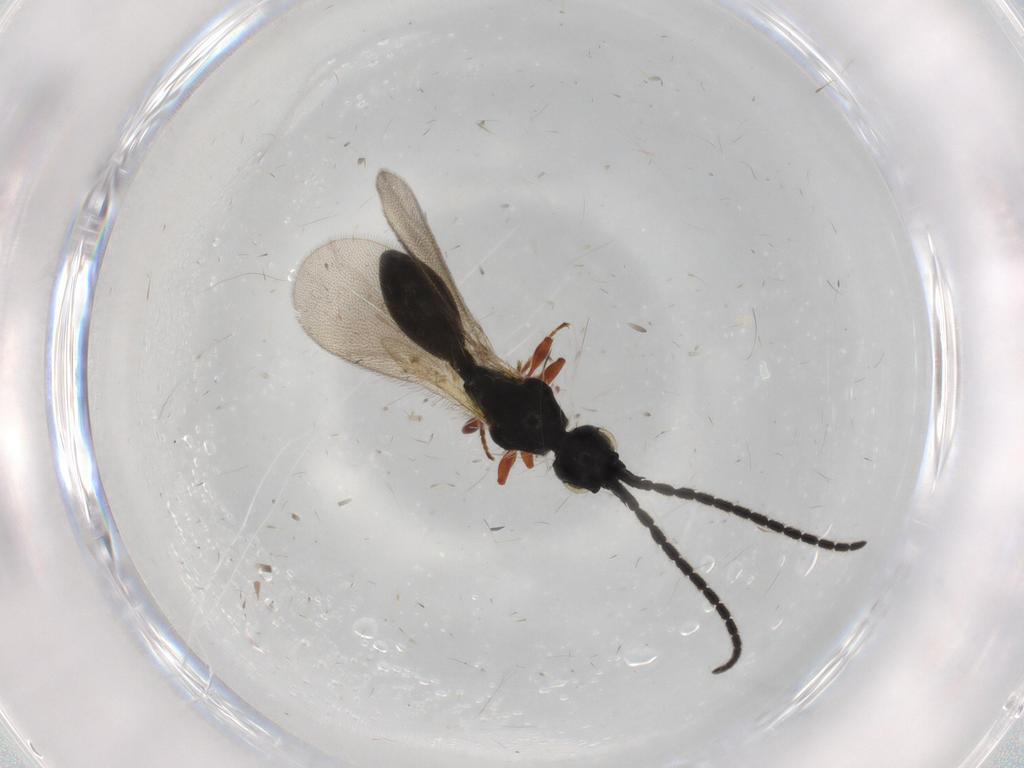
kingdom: Animalia
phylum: Arthropoda
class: Insecta
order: Hymenoptera
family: Diapriidae
